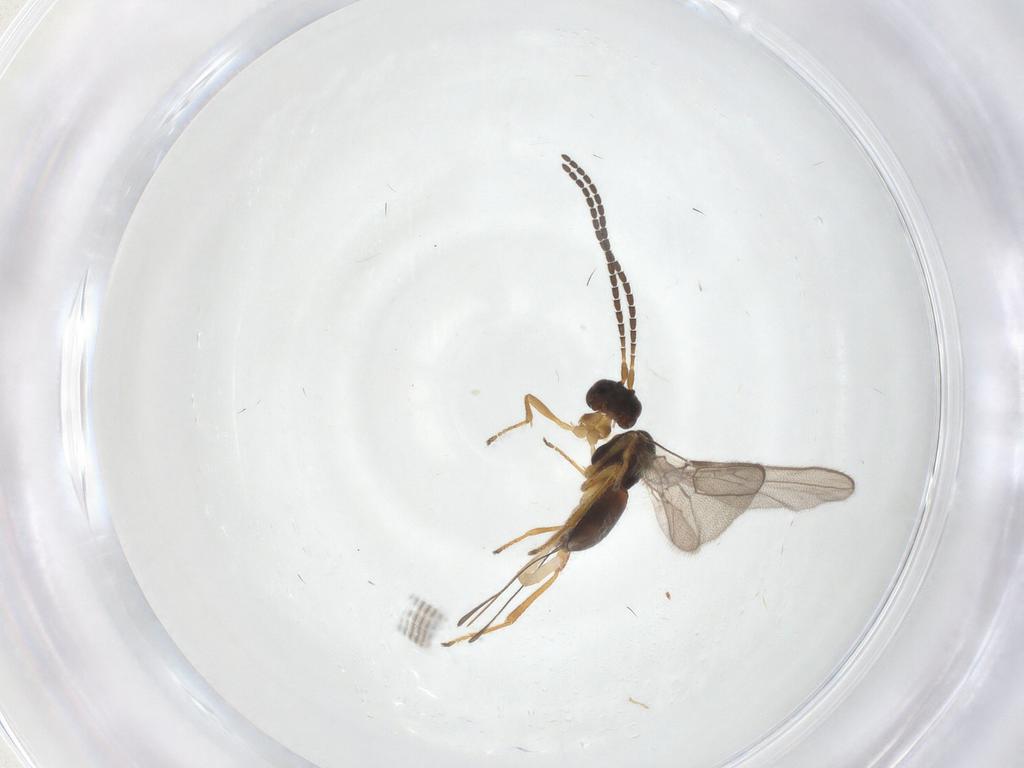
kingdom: Animalia
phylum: Arthropoda
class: Insecta
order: Hymenoptera
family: Braconidae
